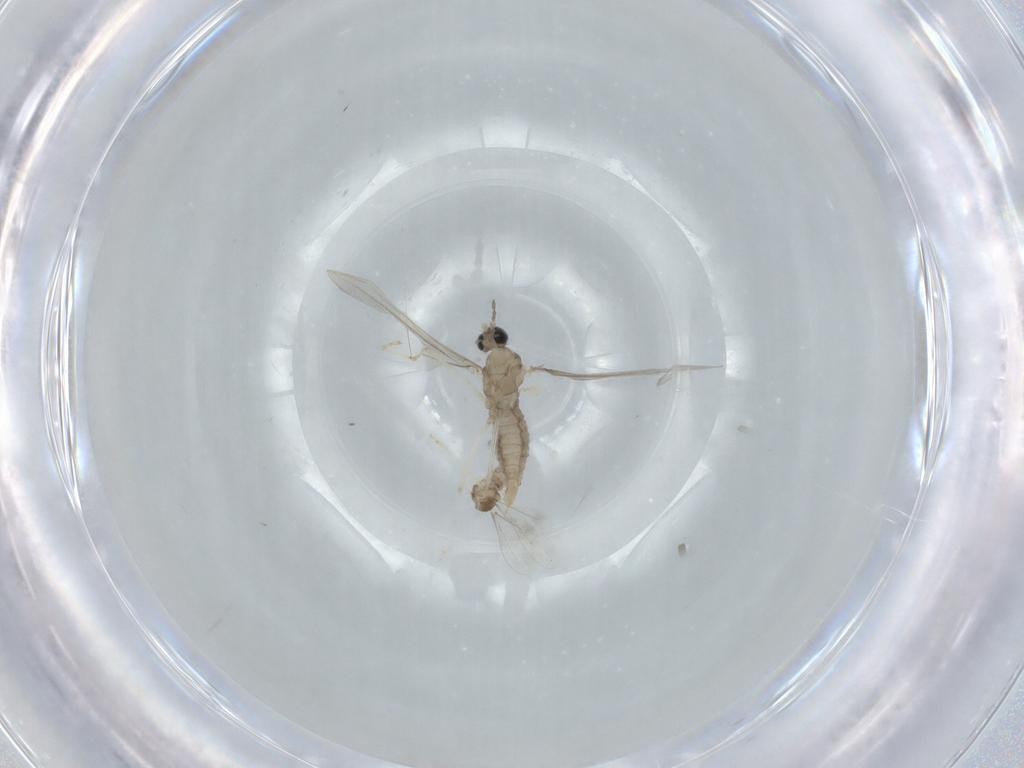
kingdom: Animalia
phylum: Arthropoda
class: Insecta
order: Diptera
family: Cecidomyiidae
